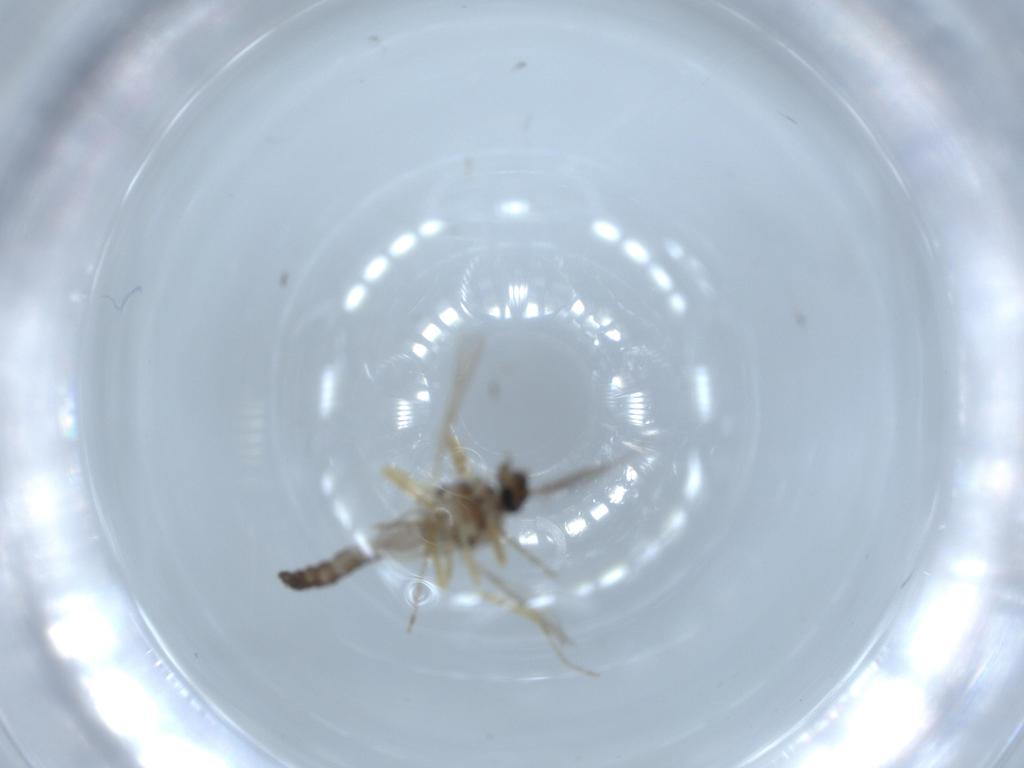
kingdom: Animalia
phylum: Arthropoda
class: Insecta
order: Diptera
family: Ceratopogonidae
